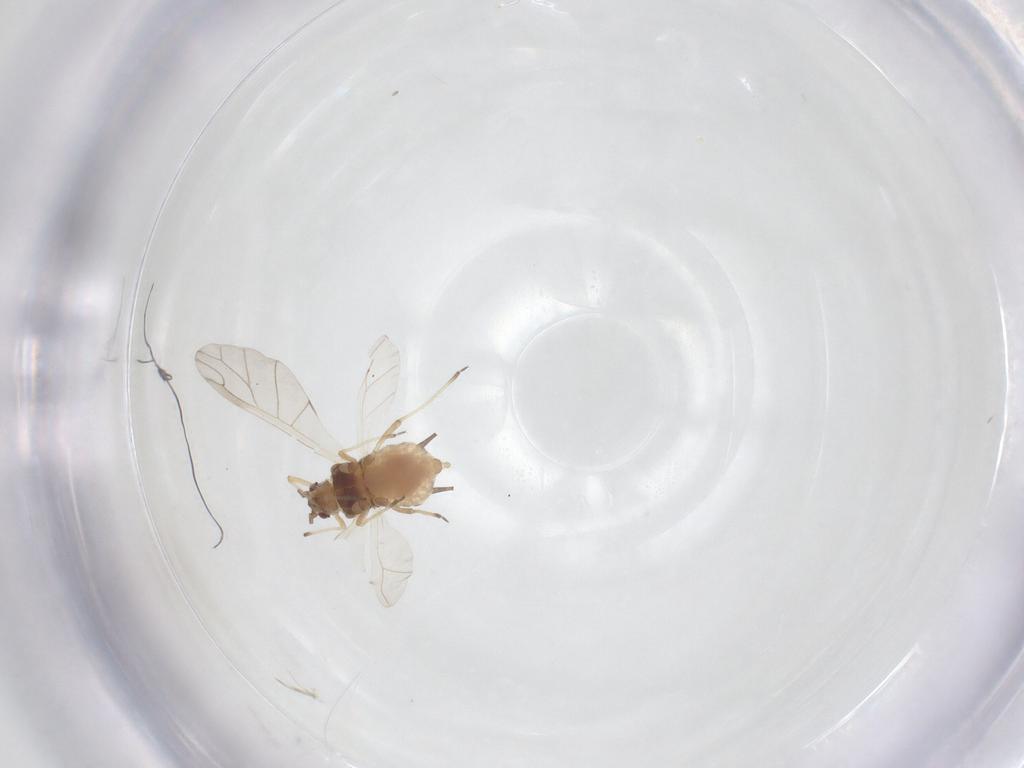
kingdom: Animalia
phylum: Arthropoda
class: Insecta
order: Hemiptera
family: Aphididae
